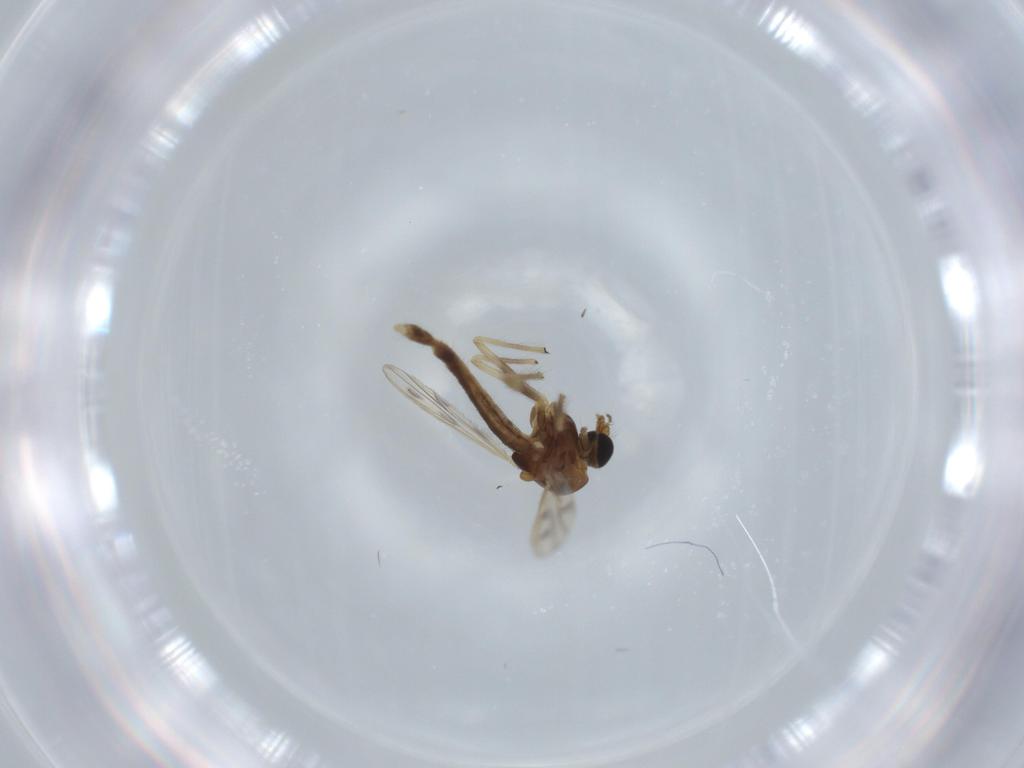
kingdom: Animalia
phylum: Arthropoda
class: Insecta
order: Diptera
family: Chironomidae
